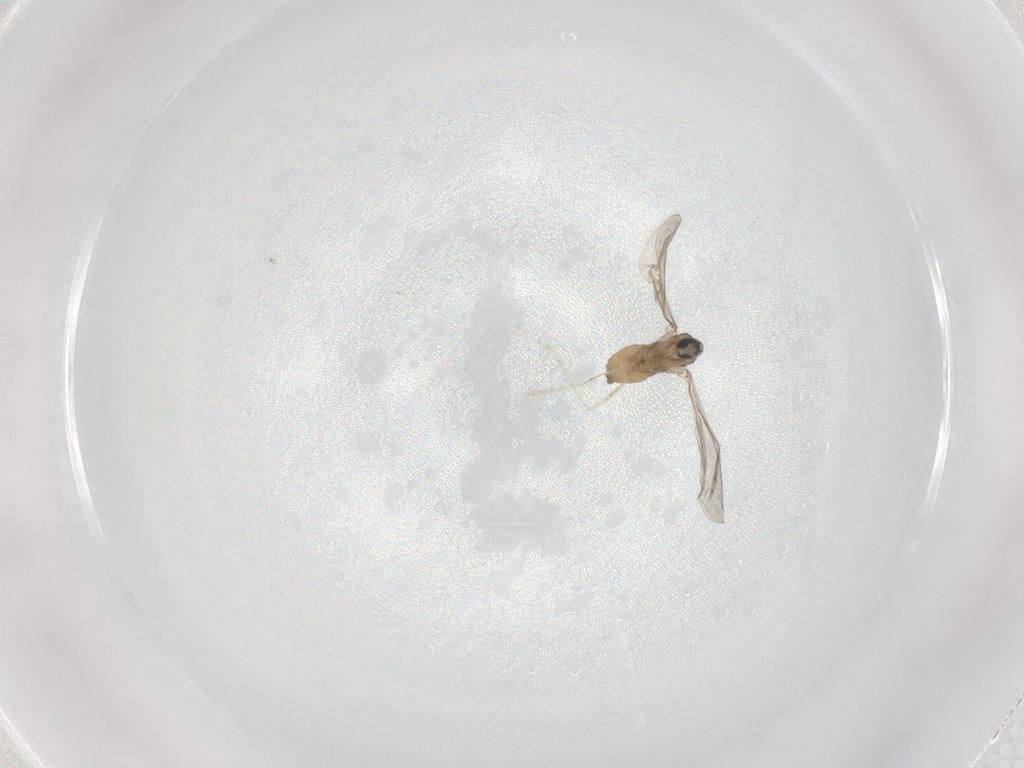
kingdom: Animalia
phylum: Arthropoda
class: Insecta
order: Diptera
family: Cecidomyiidae
